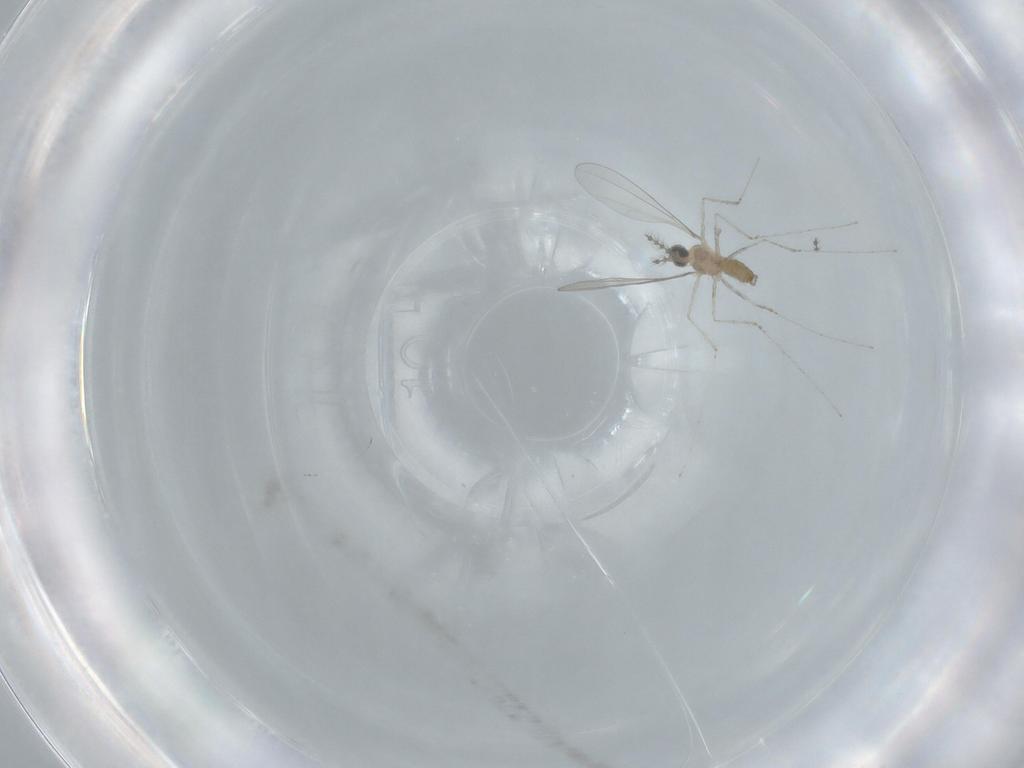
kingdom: Animalia
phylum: Arthropoda
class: Insecta
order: Diptera
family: Cecidomyiidae
